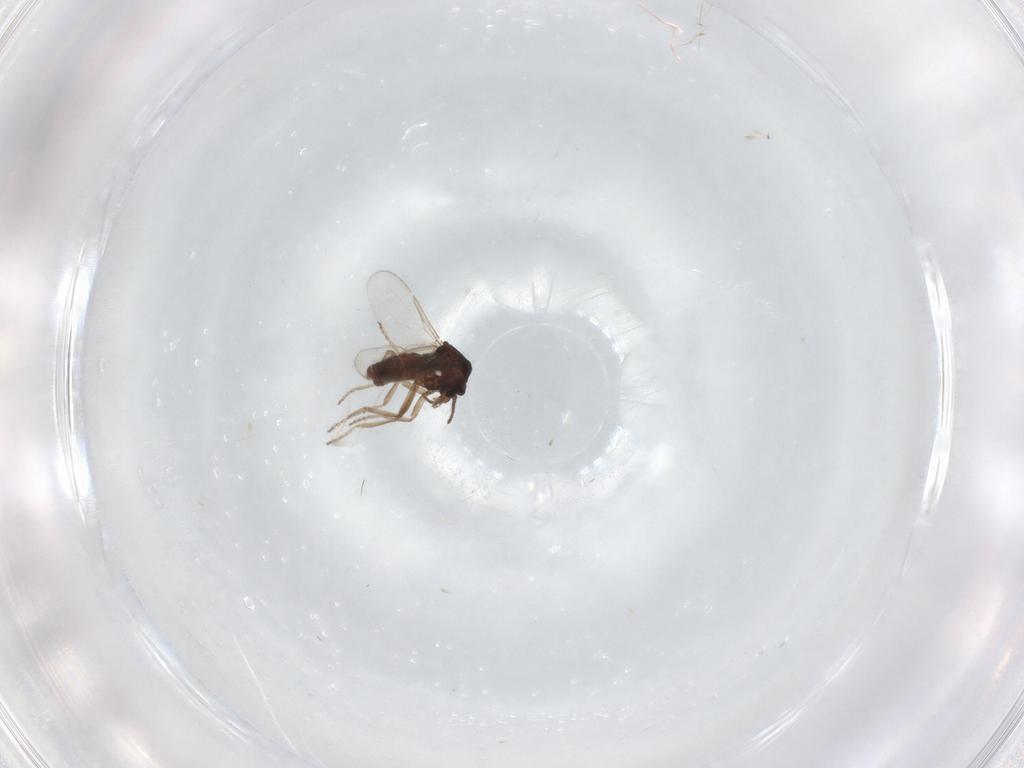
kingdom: Animalia
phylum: Arthropoda
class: Insecta
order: Diptera
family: Ceratopogonidae
